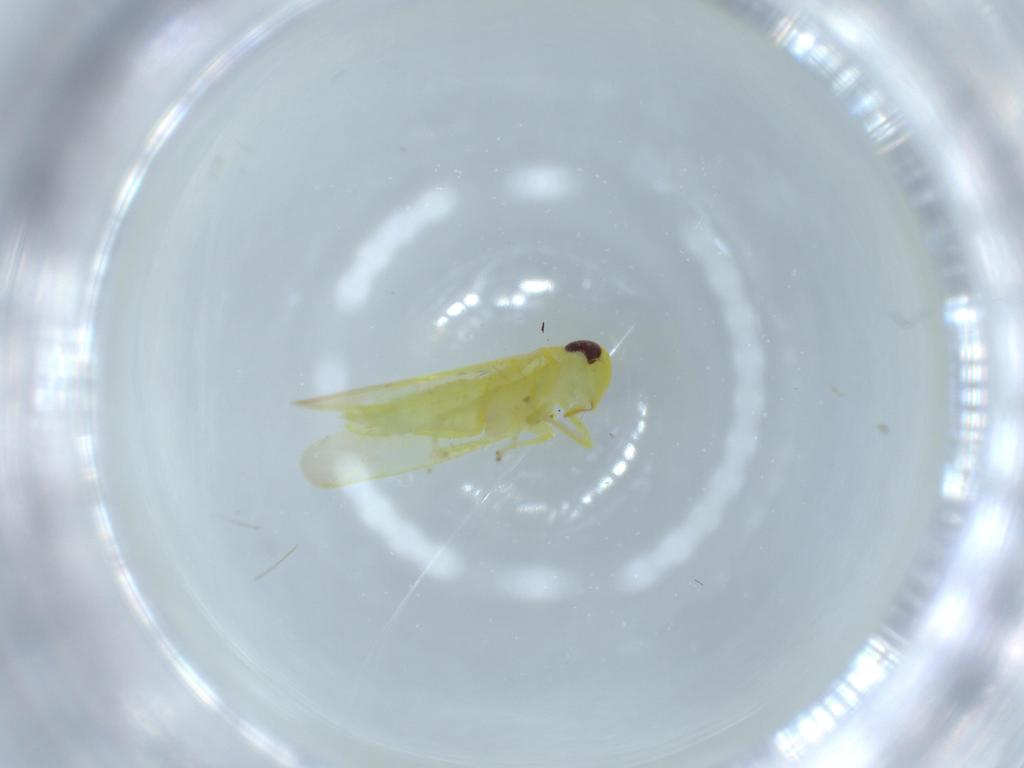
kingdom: Animalia
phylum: Arthropoda
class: Insecta
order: Hemiptera
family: Cicadellidae
